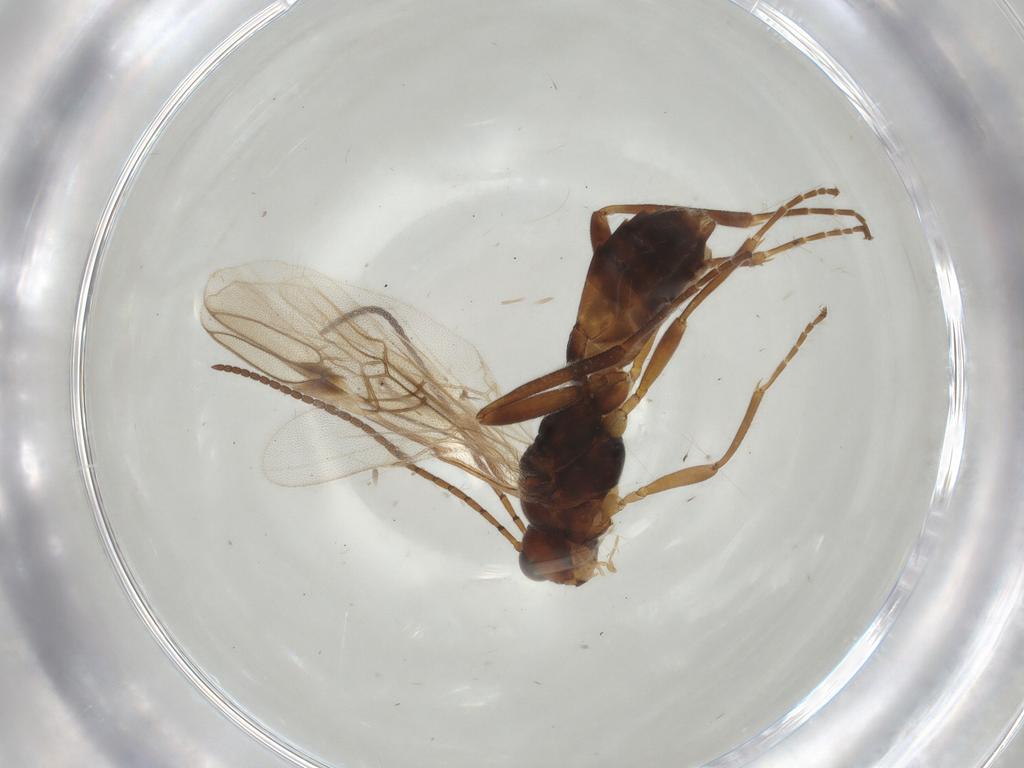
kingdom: Animalia
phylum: Arthropoda
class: Insecta
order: Hymenoptera
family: Braconidae
